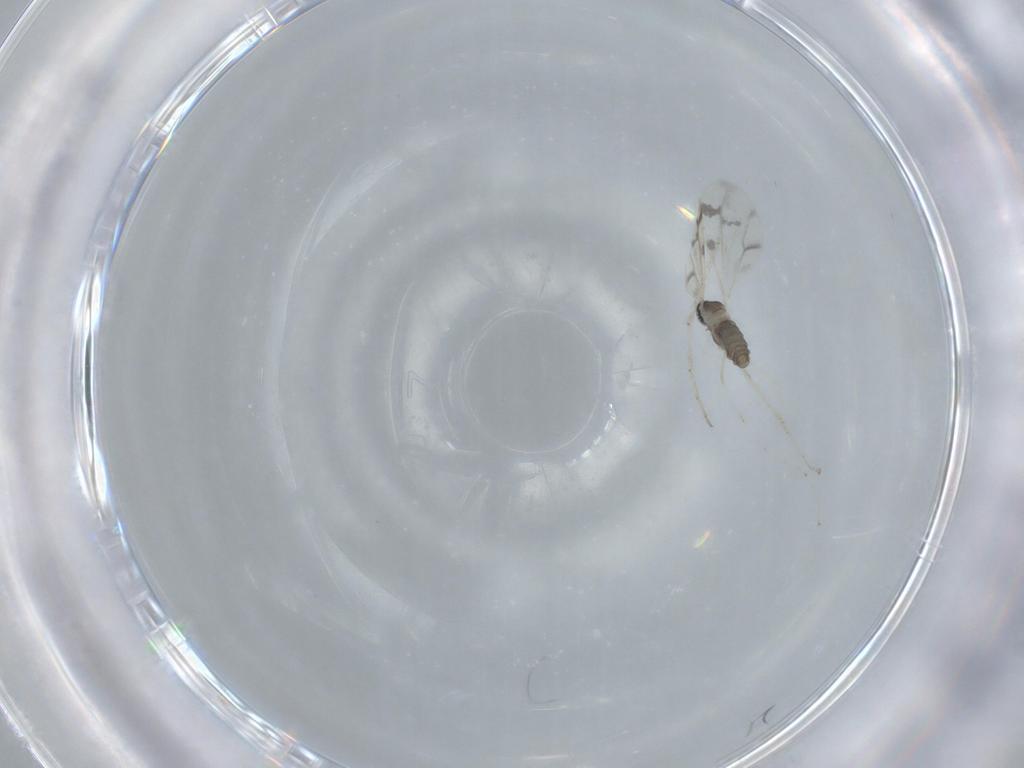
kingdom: Animalia
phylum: Arthropoda
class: Insecta
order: Diptera
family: Cecidomyiidae
